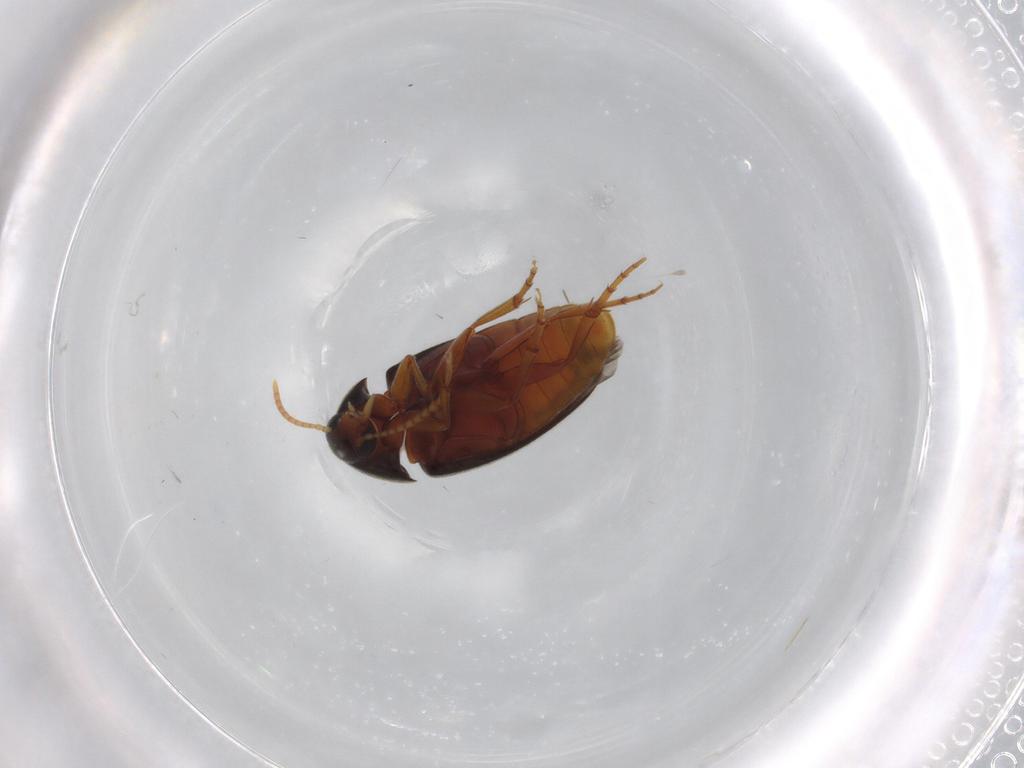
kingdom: Animalia
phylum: Arthropoda
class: Insecta
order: Coleoptera
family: Scraptiidae
